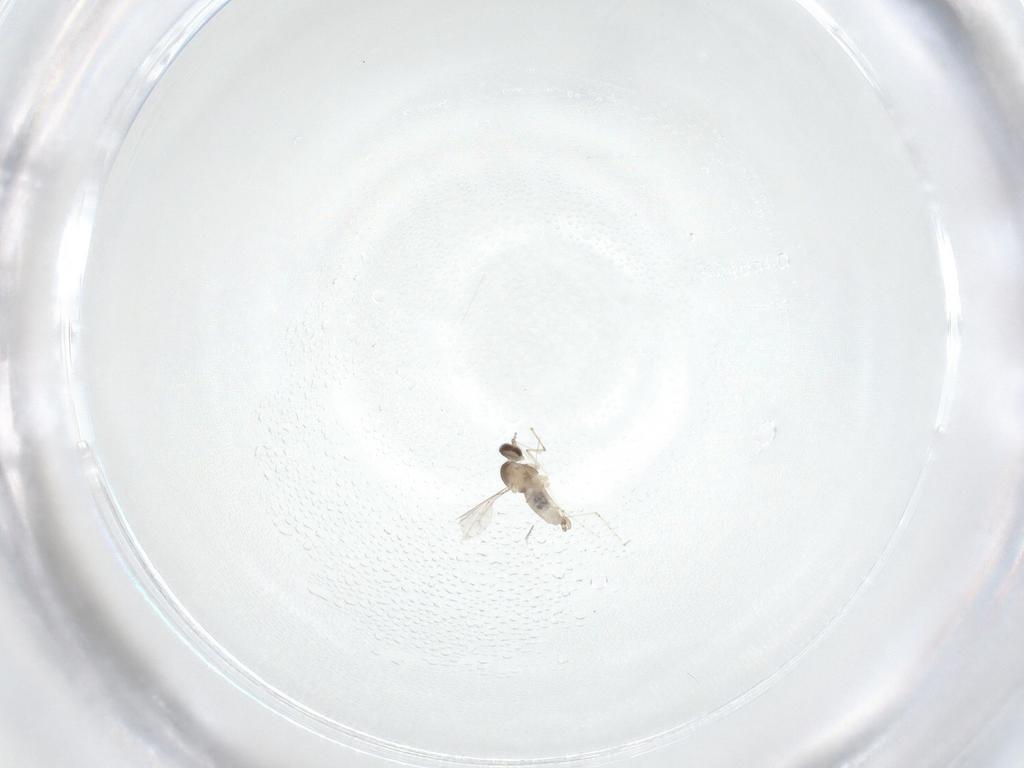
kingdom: Animalia
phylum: Arthropoda
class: Insecta
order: Diptera
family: Cecidomyiidae
